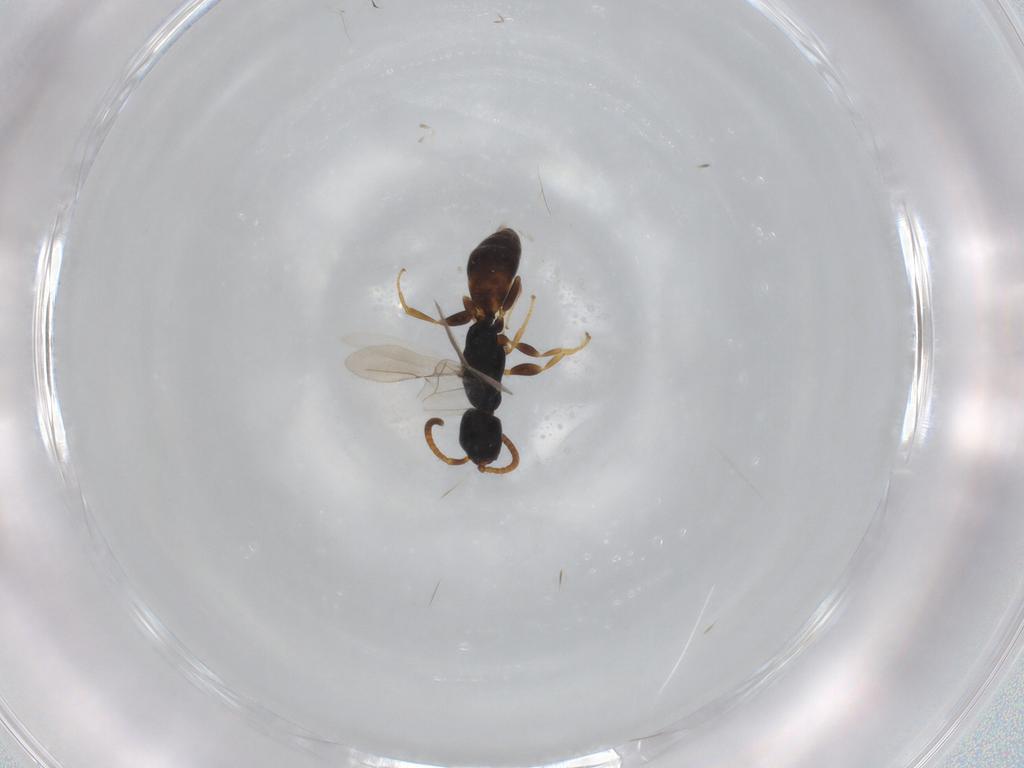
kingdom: Animalia
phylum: Arthropoda
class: Insecta
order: Hymenoptera
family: Bethylidae
